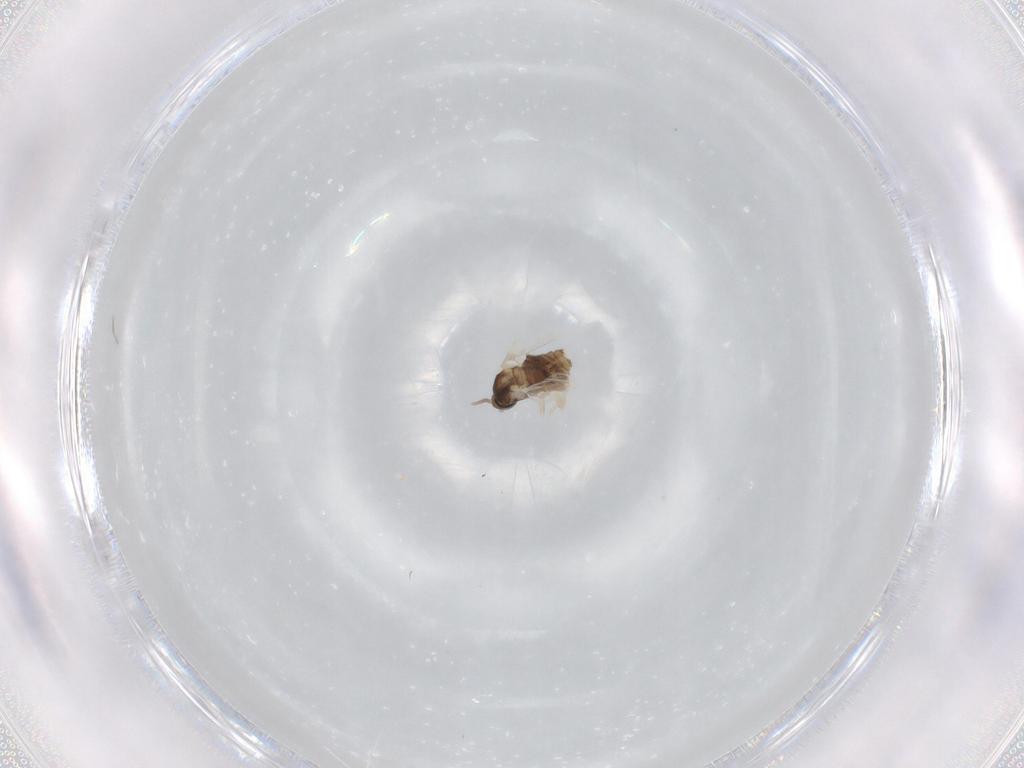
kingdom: Animalia
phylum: Arthropoda
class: Insecta
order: Diptera
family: Cecidomyiidae
